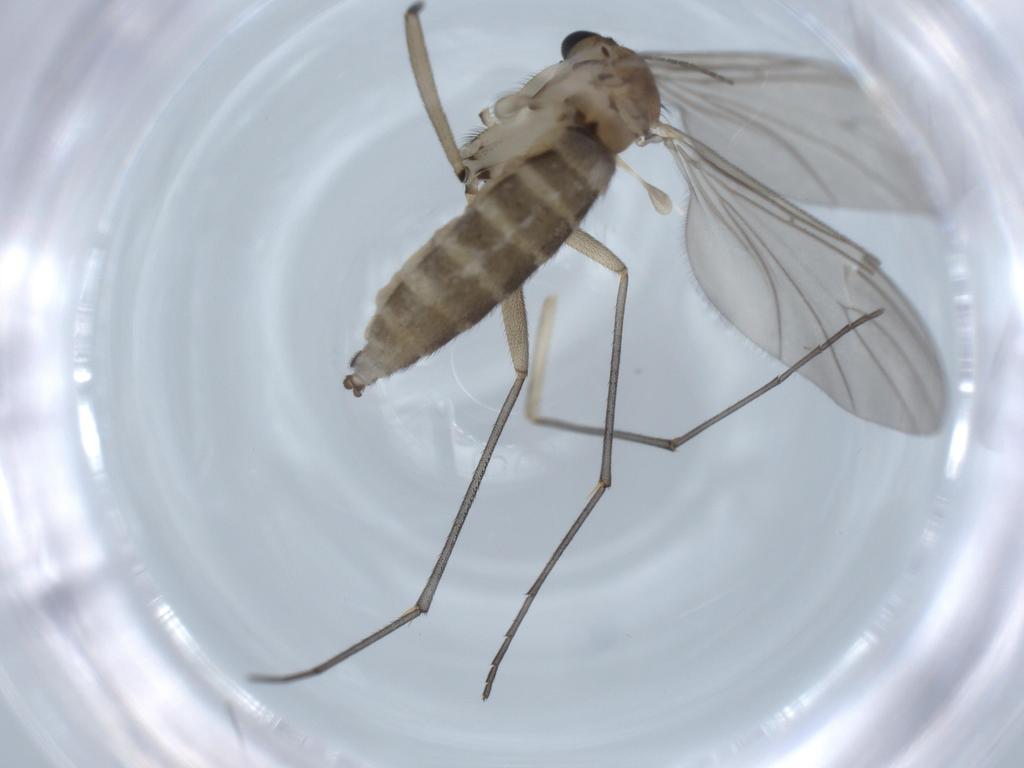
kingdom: Animalia
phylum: Arthropoda
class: Insecta
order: Diptera
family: Sciaridae
